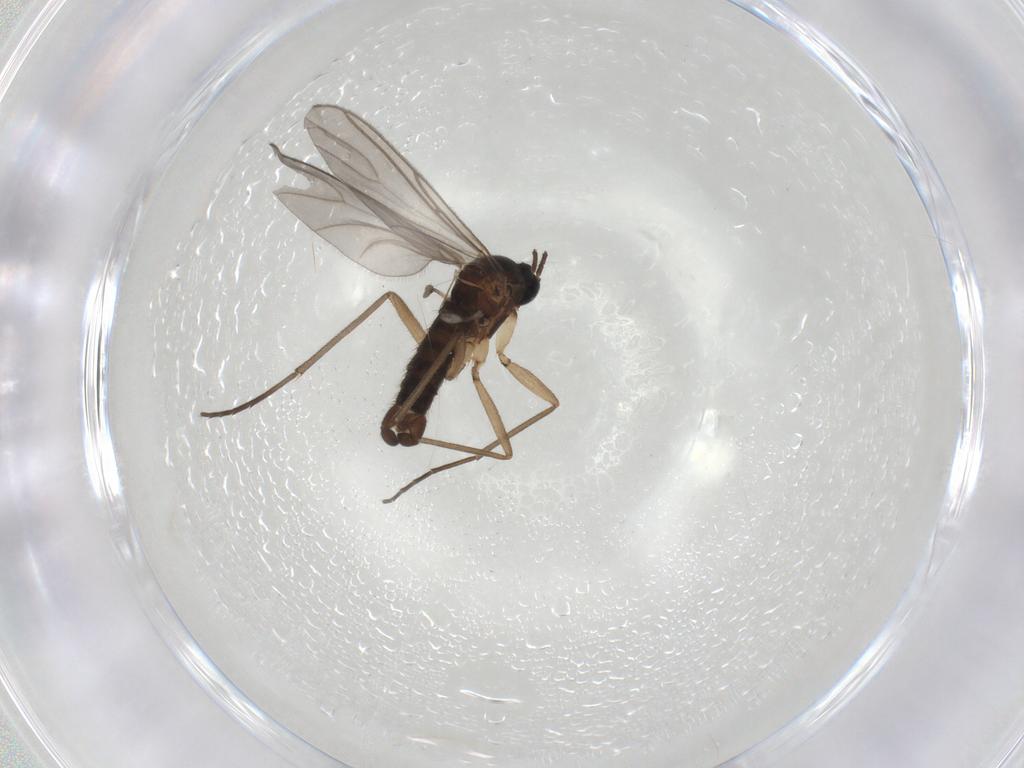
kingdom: Animalia
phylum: Arthropoda
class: Insecta
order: Diptera
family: Sciaridae
